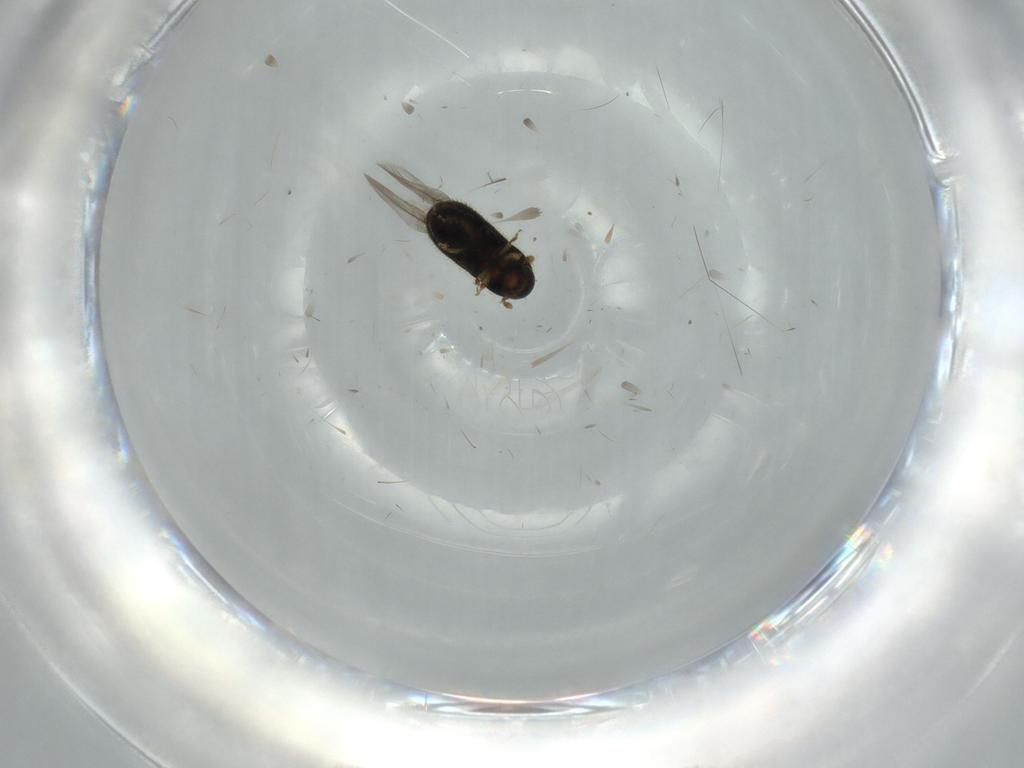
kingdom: Animalia
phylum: Arthropoda
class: Insecta
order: Coleoptera
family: Curculionidae
